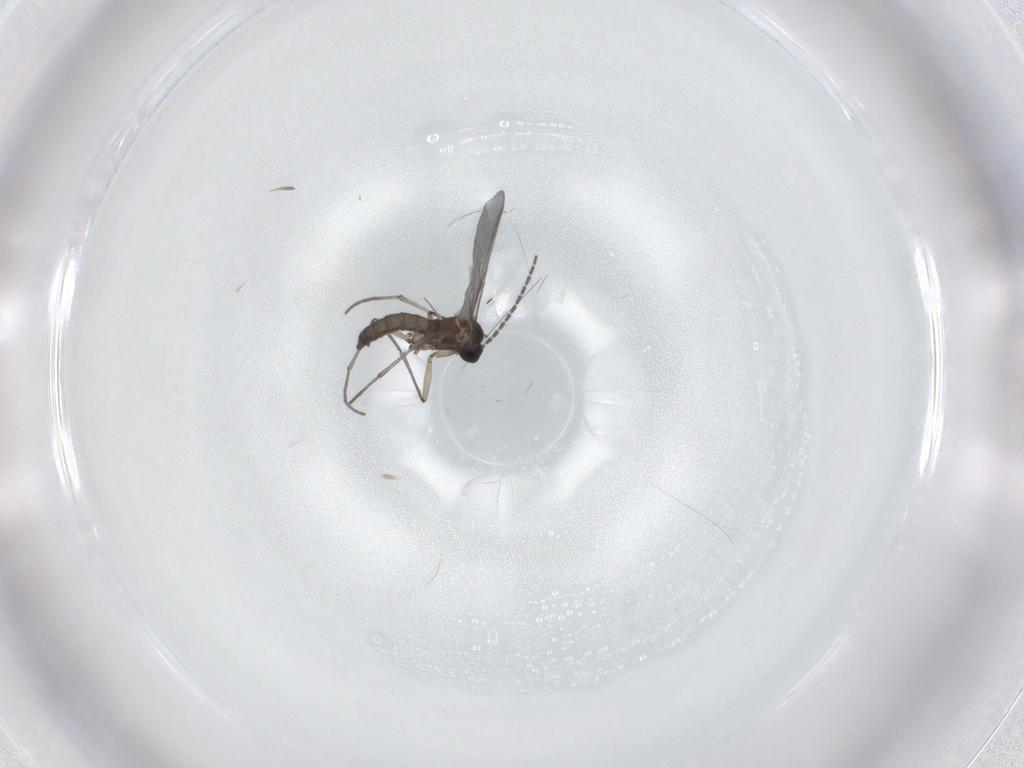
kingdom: Animalia
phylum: Arthropoda
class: Insecta
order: Diptera
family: Sciaridae
